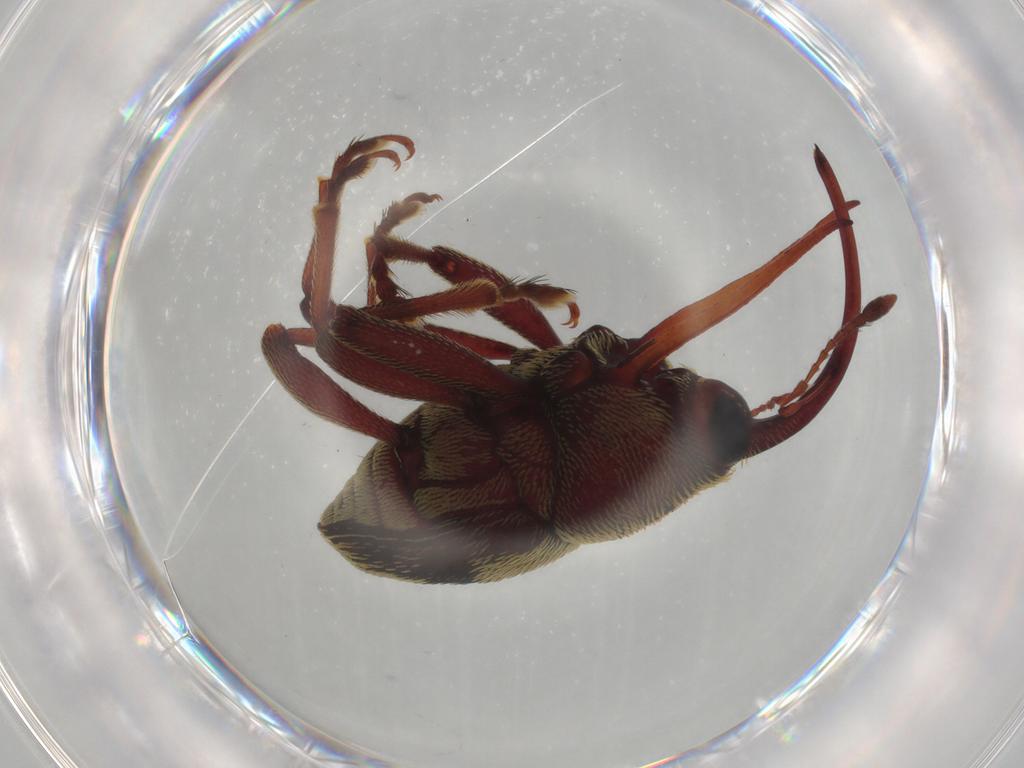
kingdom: Animalia
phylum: Arthropoda
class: Insecta
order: Coleoptera
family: Curculionidae
